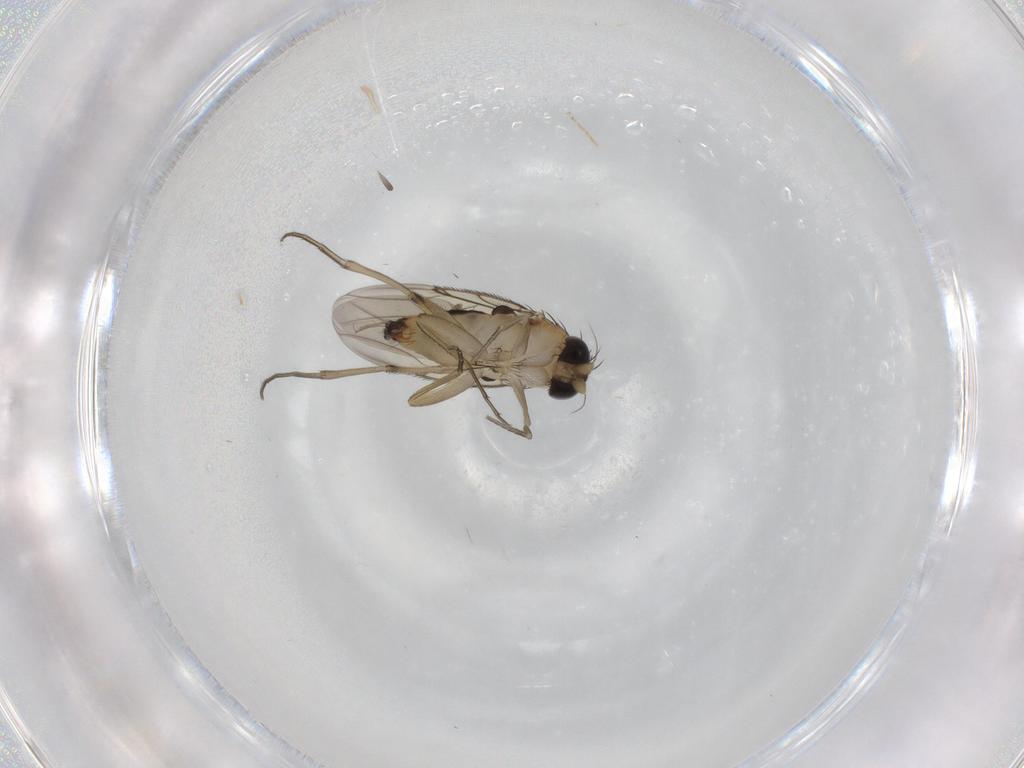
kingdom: Animalia
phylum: Arthropoda
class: Insecta
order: Diptera
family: Phoridae
